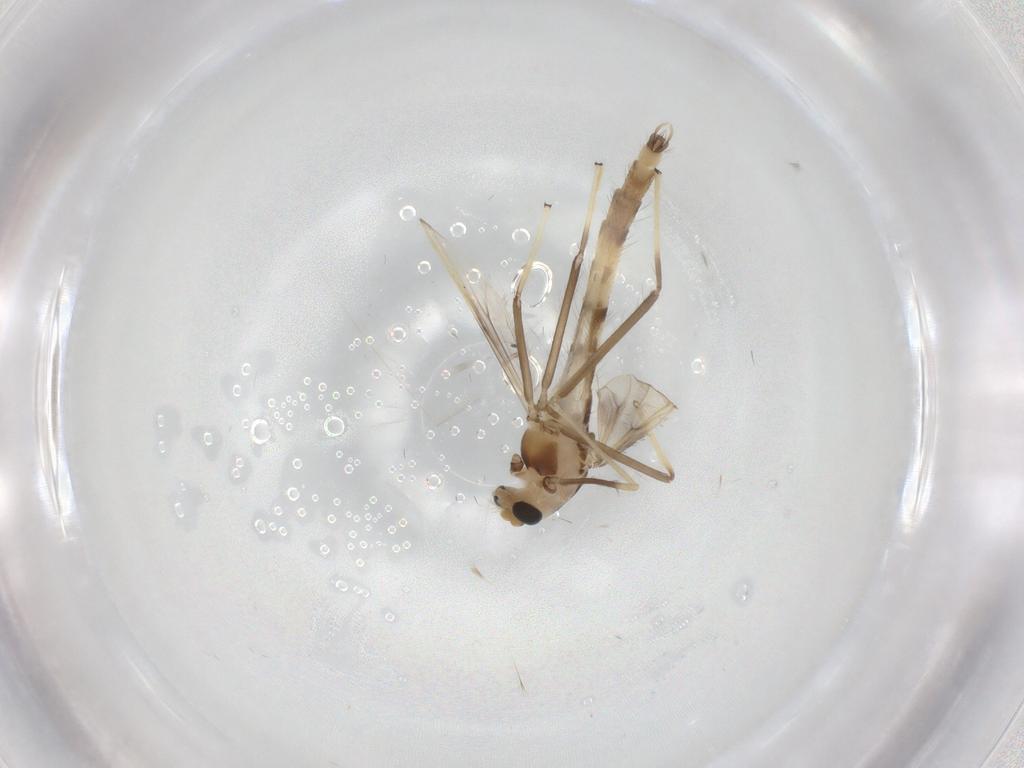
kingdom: Animalia
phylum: Arthropoda
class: Insecta
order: Diptera
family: Chironomidae
